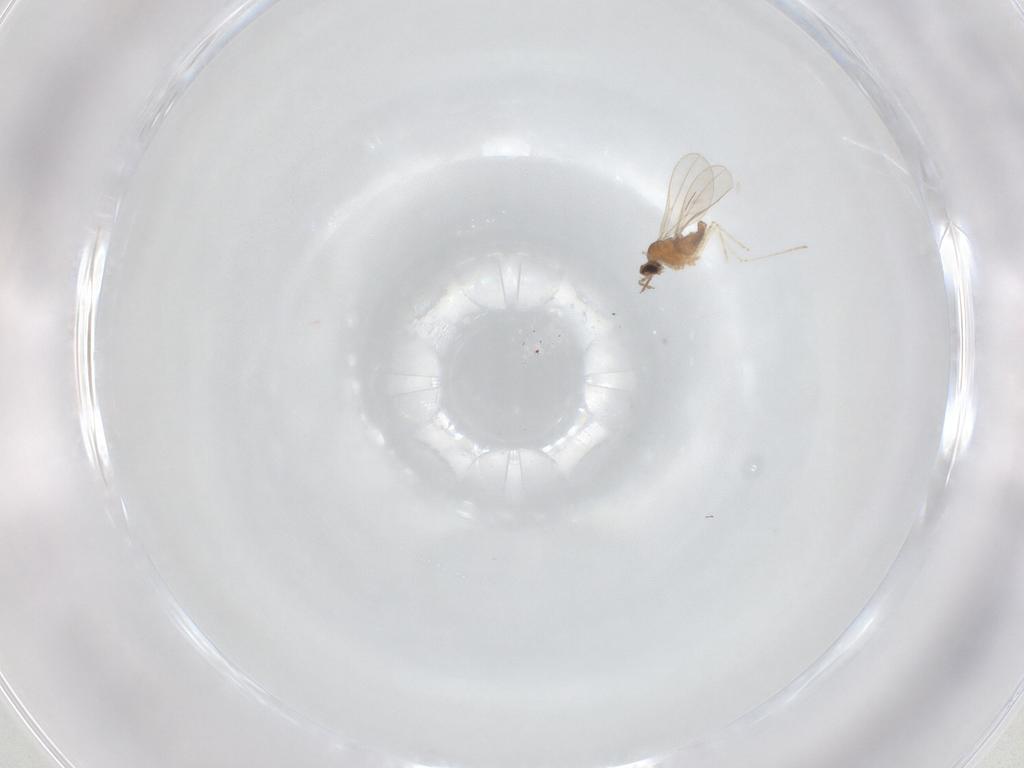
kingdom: Animalia
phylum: Arthropoda
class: Insecta
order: Diptera
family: Cecidomyiidae
